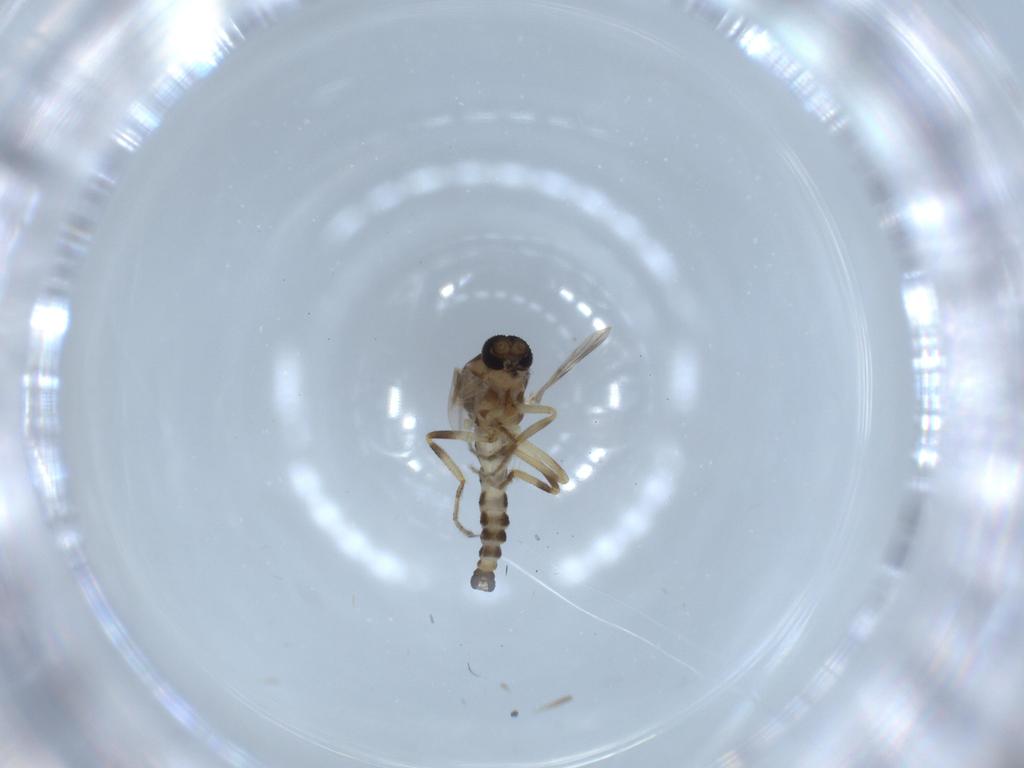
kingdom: Animalia
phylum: Arthropoda
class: Insecta
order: Diptera
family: Ceratopogonidae
